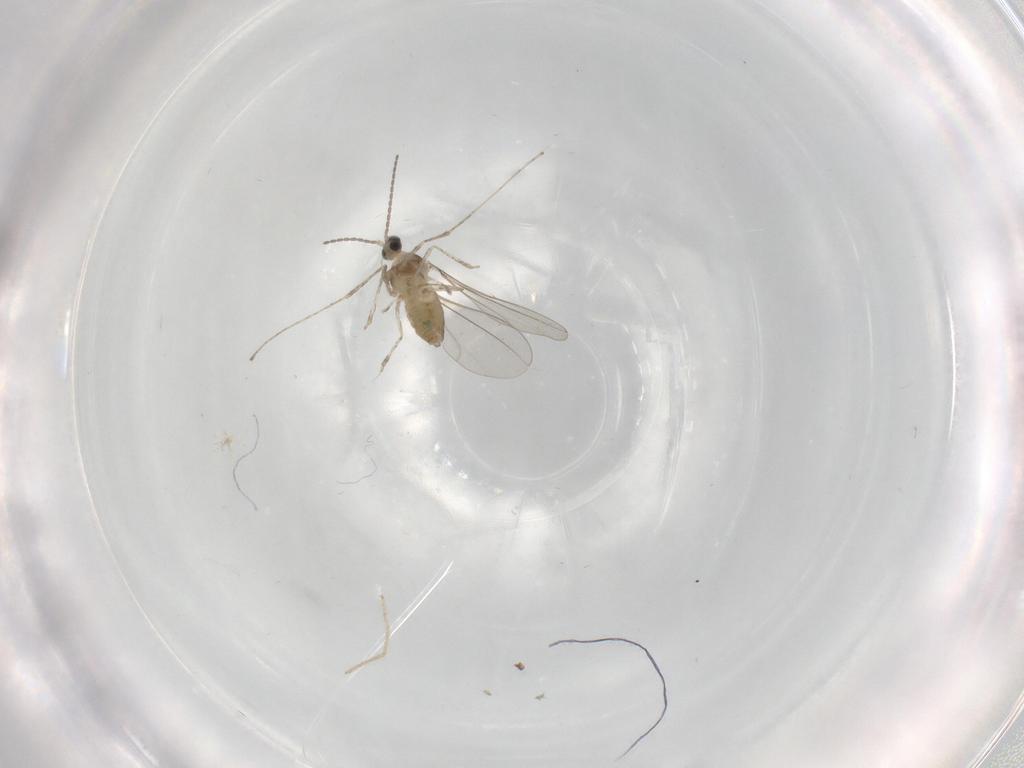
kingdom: Animalia
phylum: Arthropoda
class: Insecta
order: Diptera
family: Cecidomyiidae
